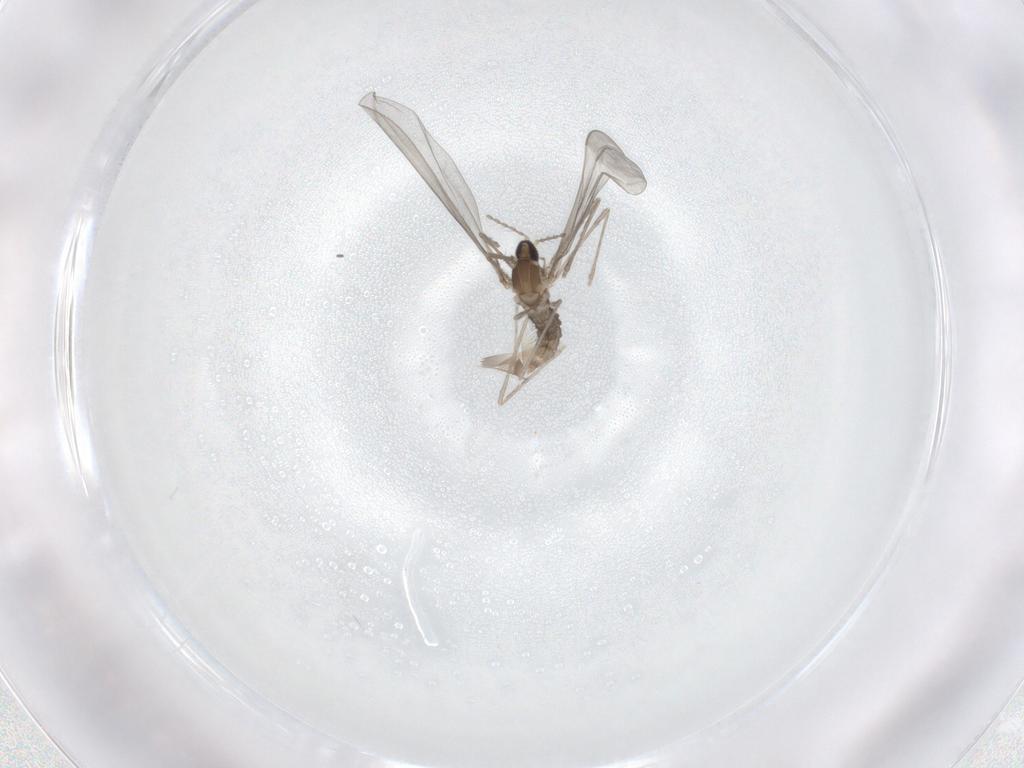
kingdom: Animalia
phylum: Arthropoda
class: Insecta
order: Diptera
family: Cecidomyiidae
